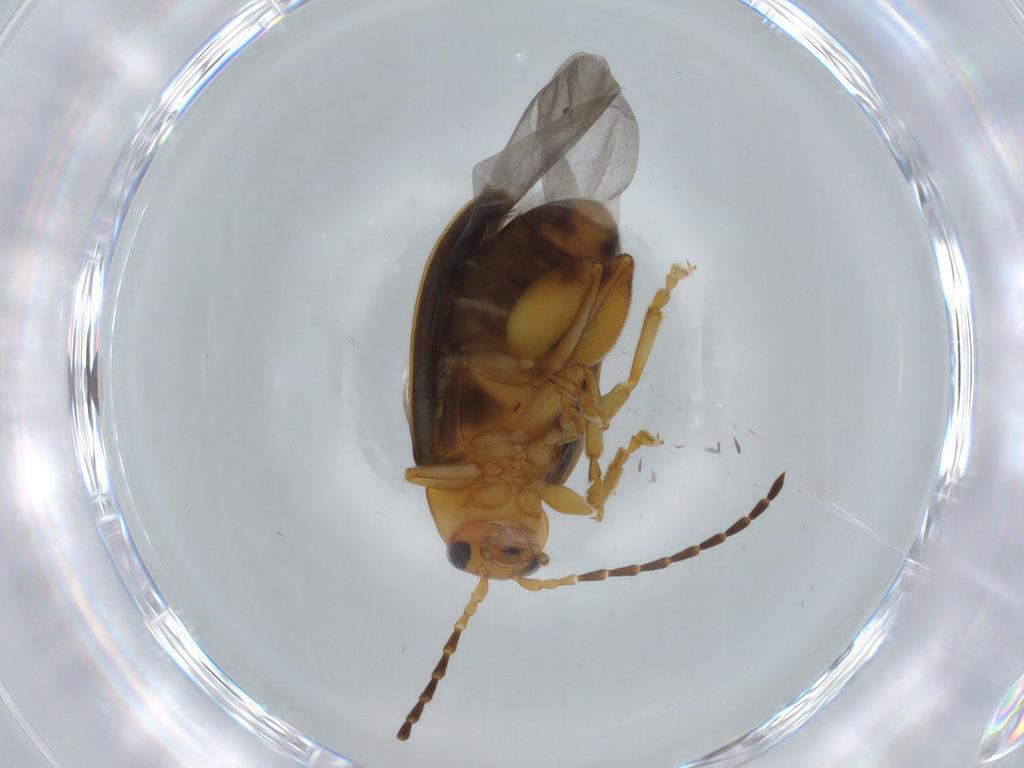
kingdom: Animalia
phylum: Arthropoda
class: Insecta
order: Coleoptera
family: Chrysomelidae
